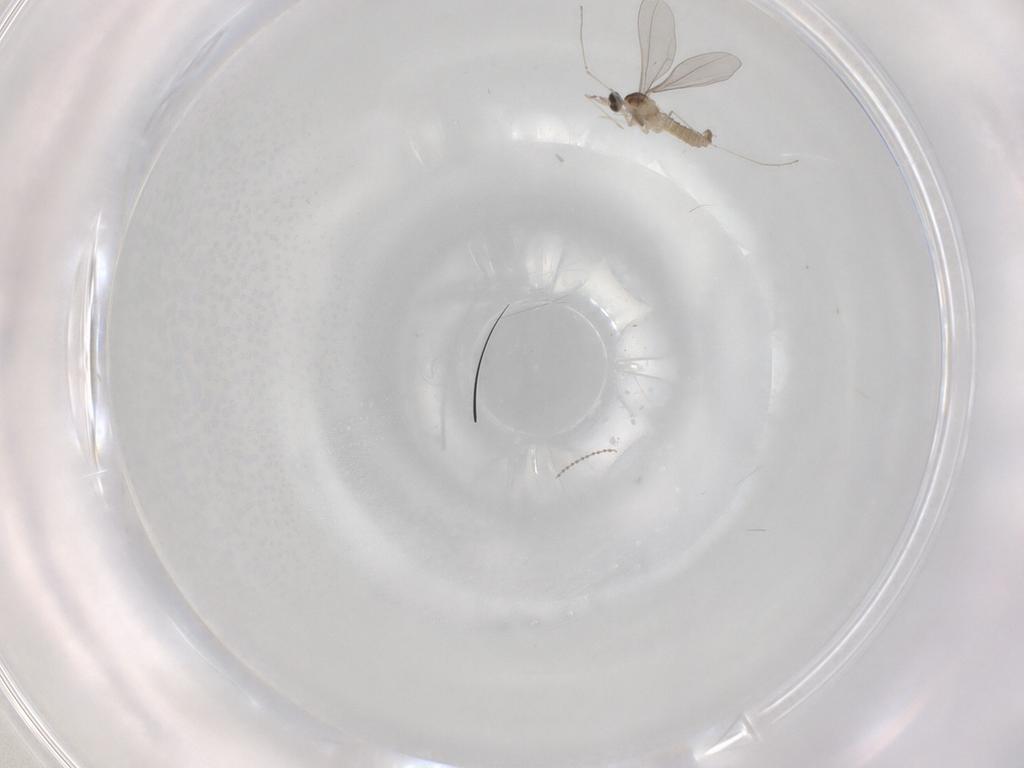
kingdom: Animalia
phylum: Arthropoda
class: Insecta
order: Diptera
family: Cecidomyiidae
